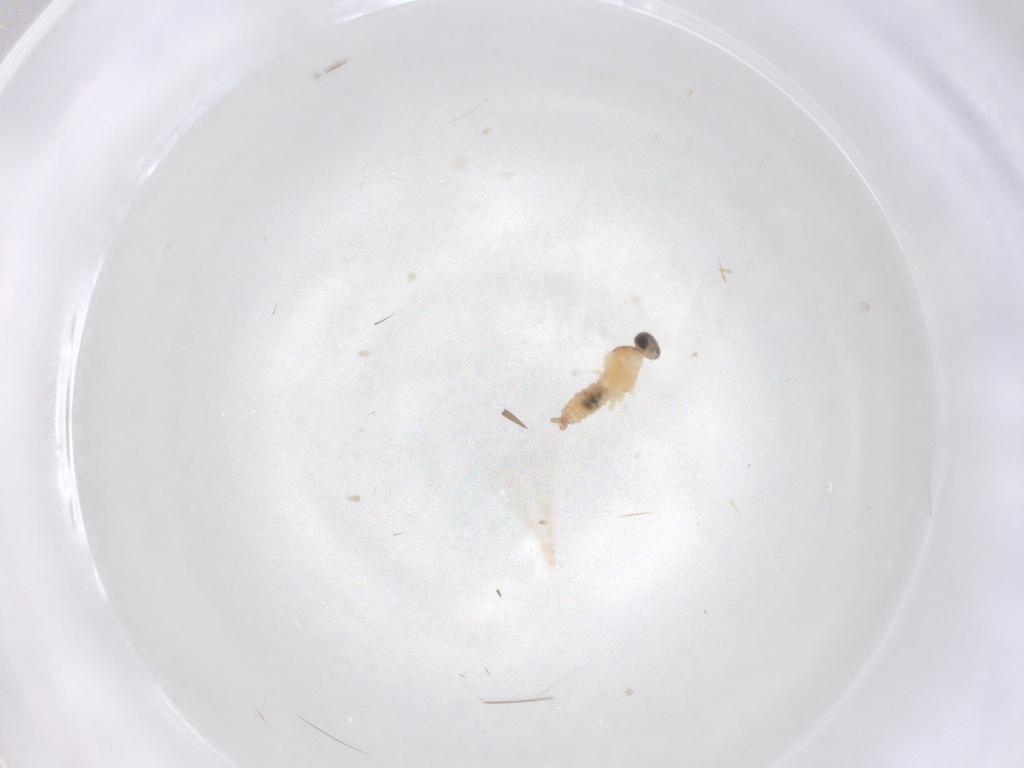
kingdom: Animalia
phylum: Arthropoda
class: Insecta
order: Diptera
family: Cecidomyiidae
